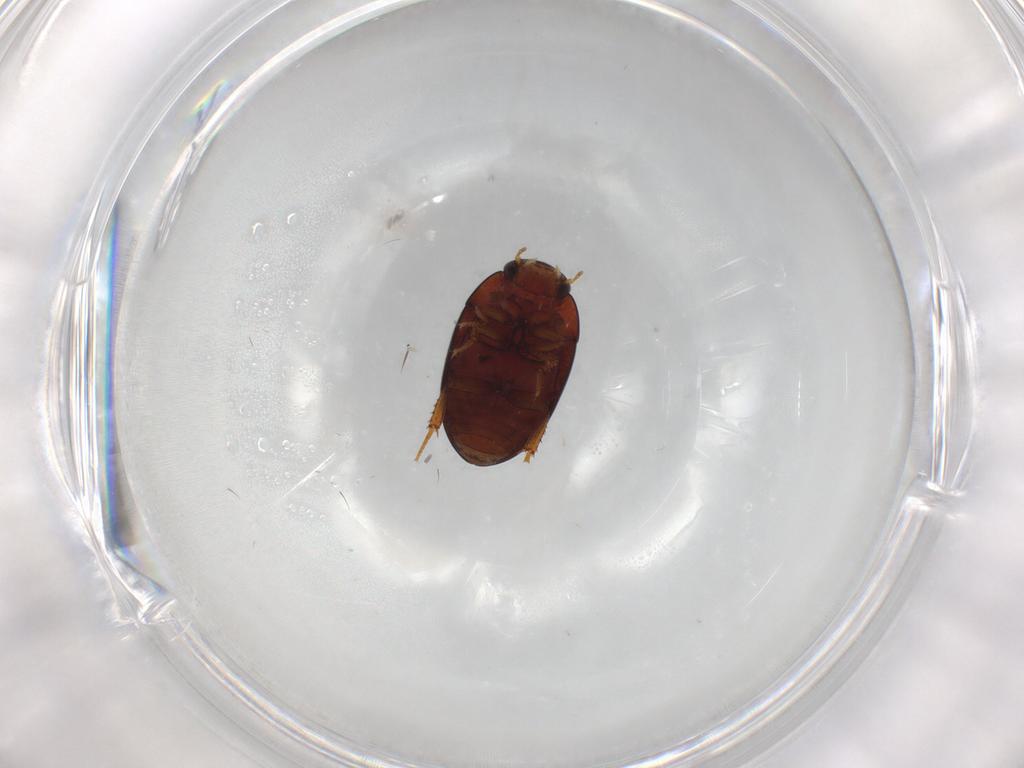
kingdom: Animalia
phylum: Arthropoda
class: Insecta
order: Coleoptera
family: Hydrophilidae
